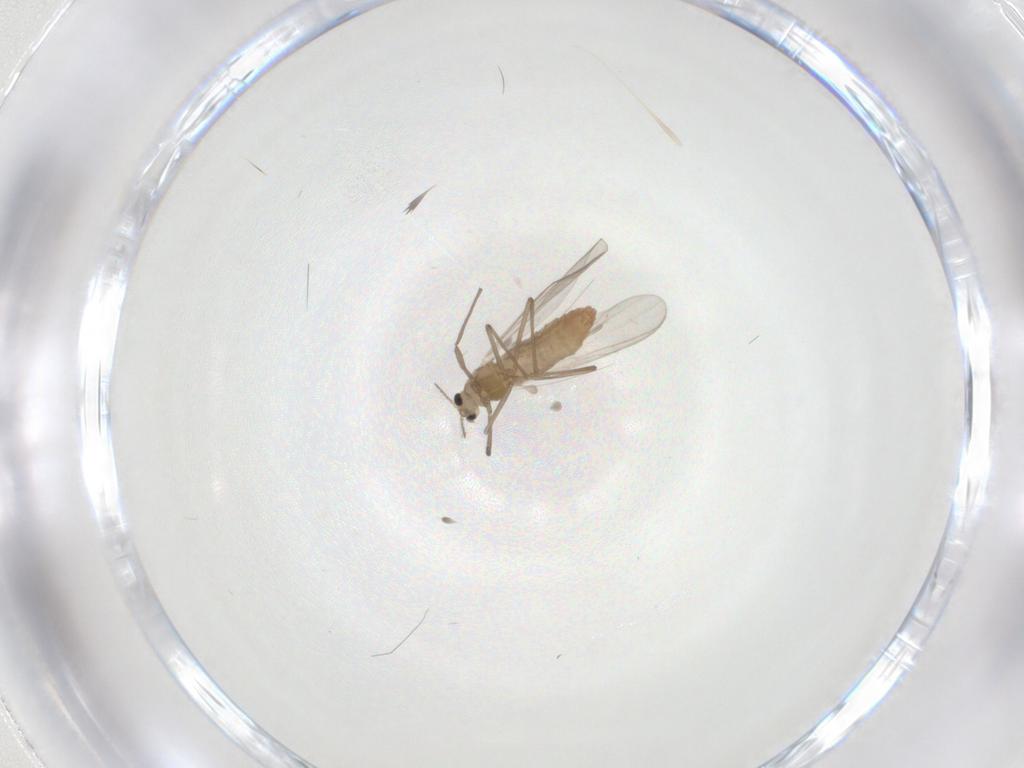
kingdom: Animalia
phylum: Arthropoda
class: Insecta
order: Diptera
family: Chironomidae
